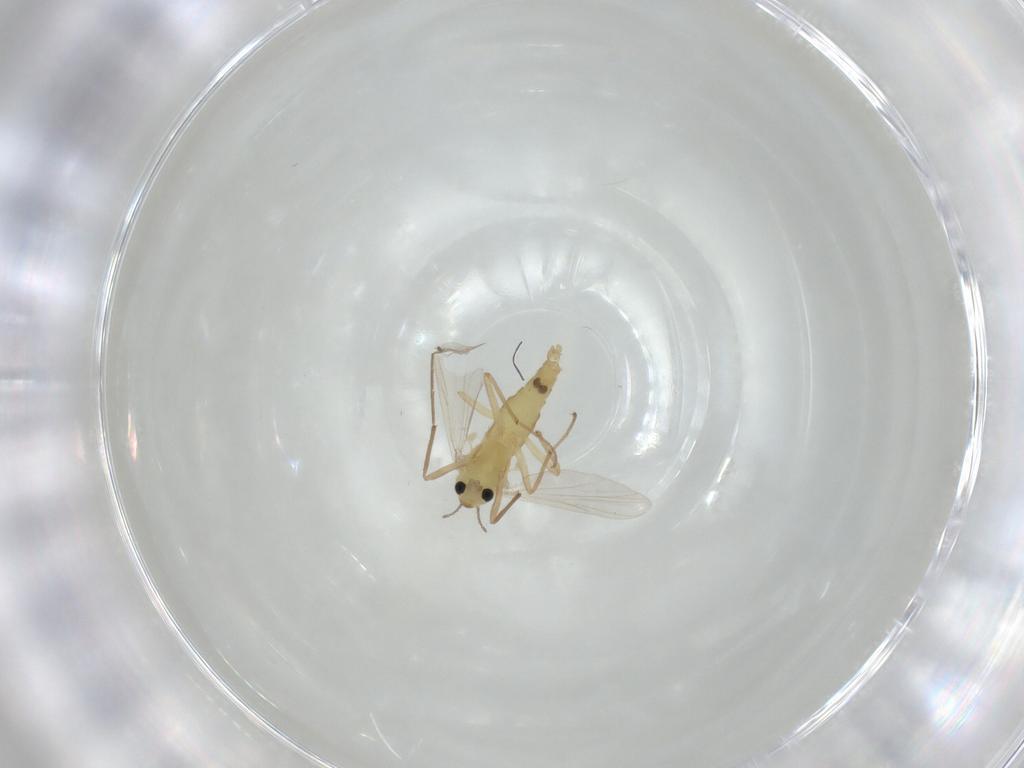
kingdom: Animalia
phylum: Arthropoda
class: Insecta
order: Diptera
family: Chironomidae
